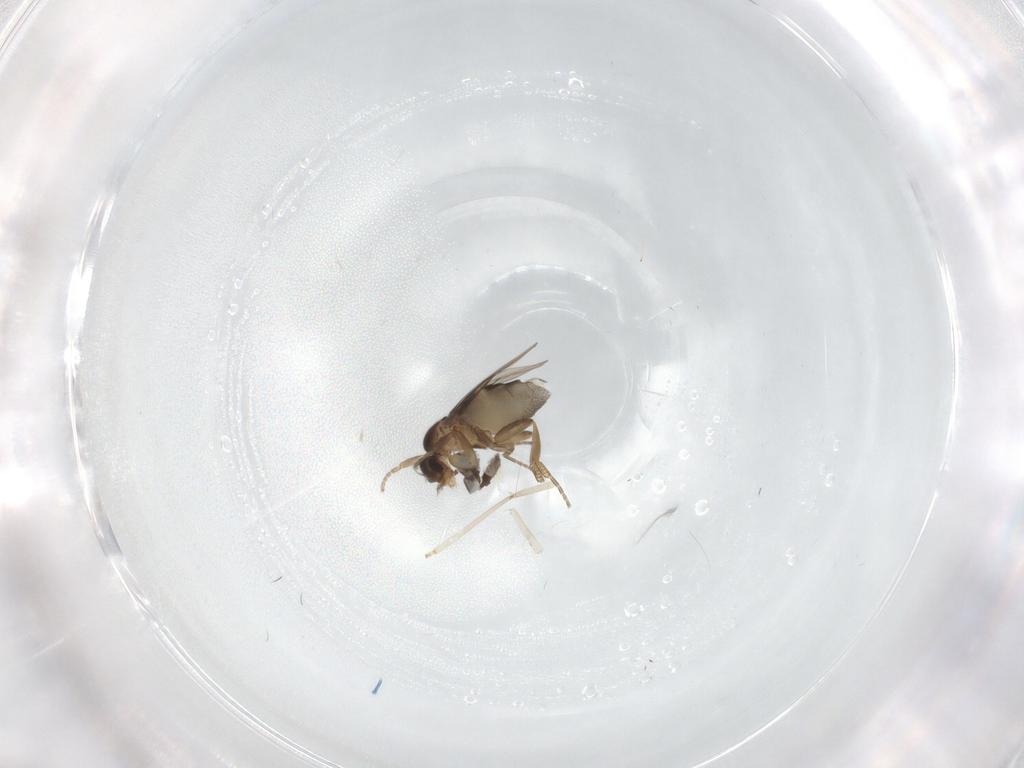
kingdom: Animalia
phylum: Arthropoda
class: Insecta
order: Diptera
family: Phoridae
